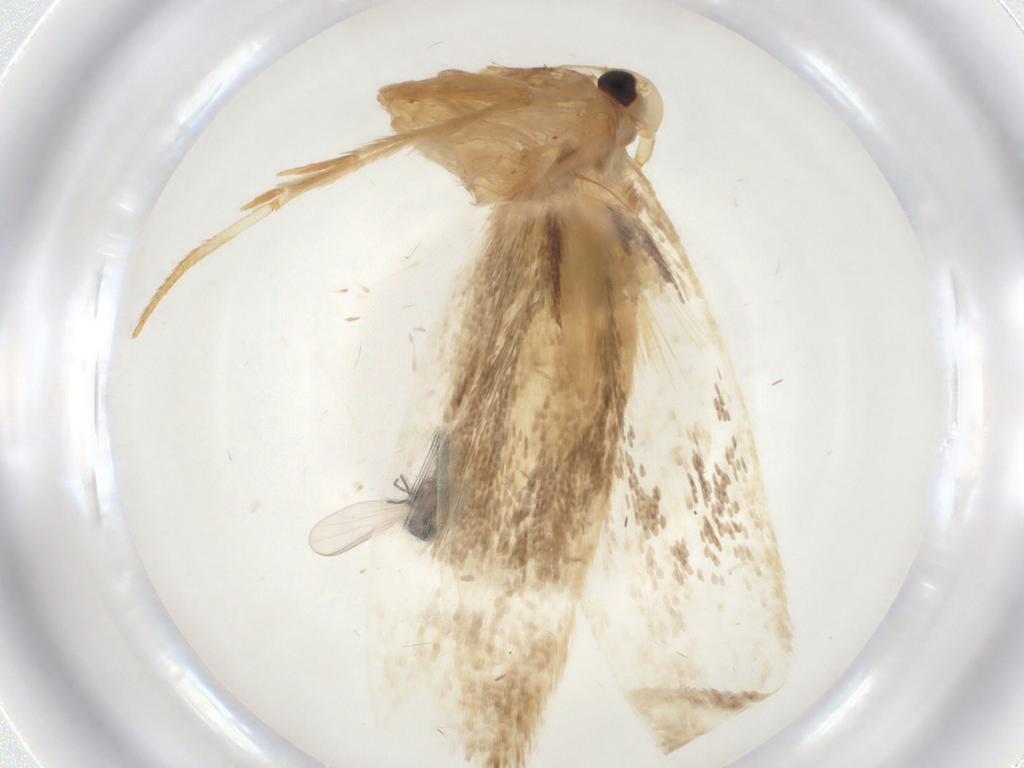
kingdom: Animalia
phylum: Arthropoda
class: Insecta
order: Lepidoptera
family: Geometridae
